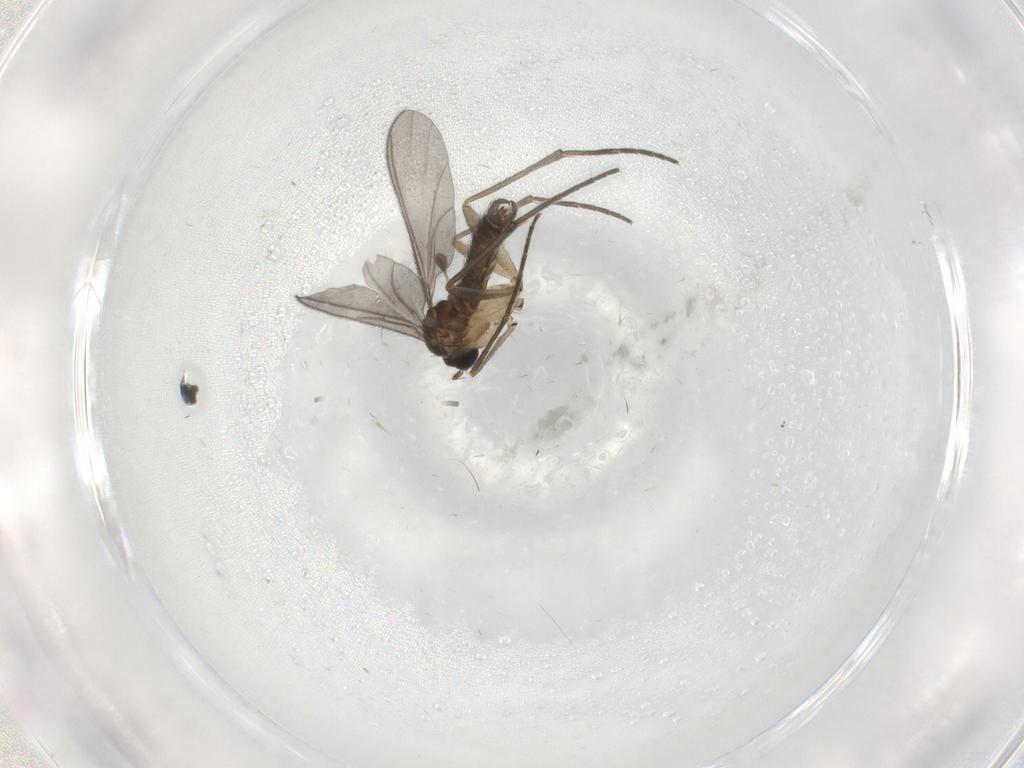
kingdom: Animalia
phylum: Arthropoda
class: Insecta
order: Diptera
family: Sciaridae
